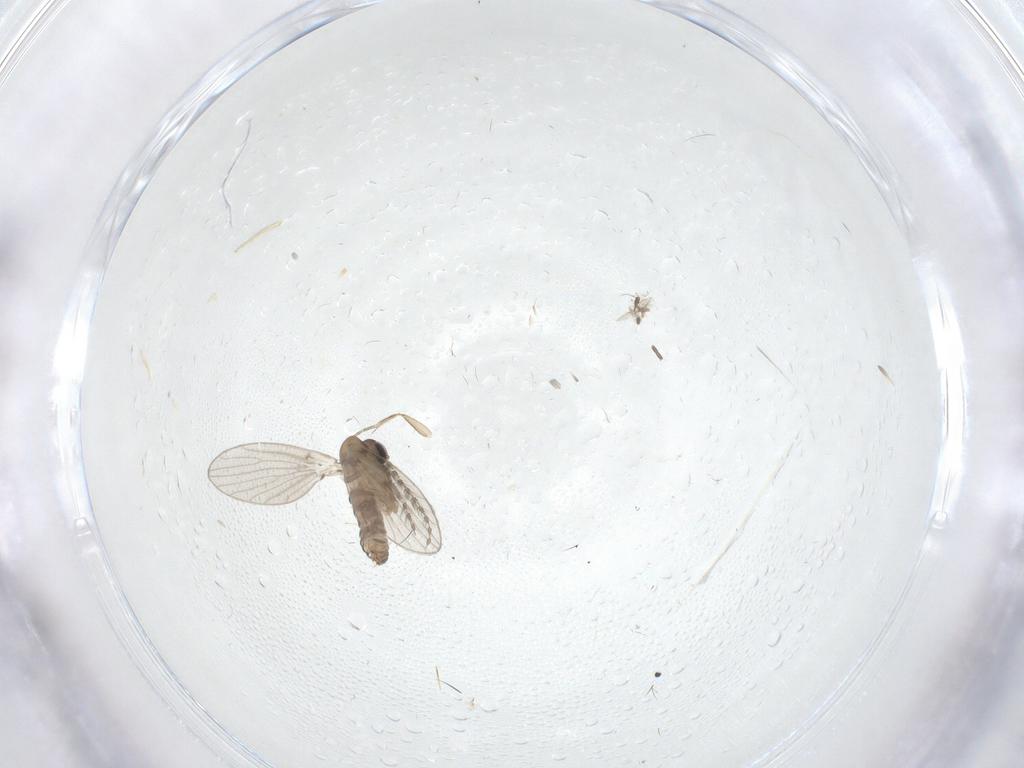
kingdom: Animalia
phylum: Arthropoda
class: Insecta
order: Diptera
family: Limoniidae
